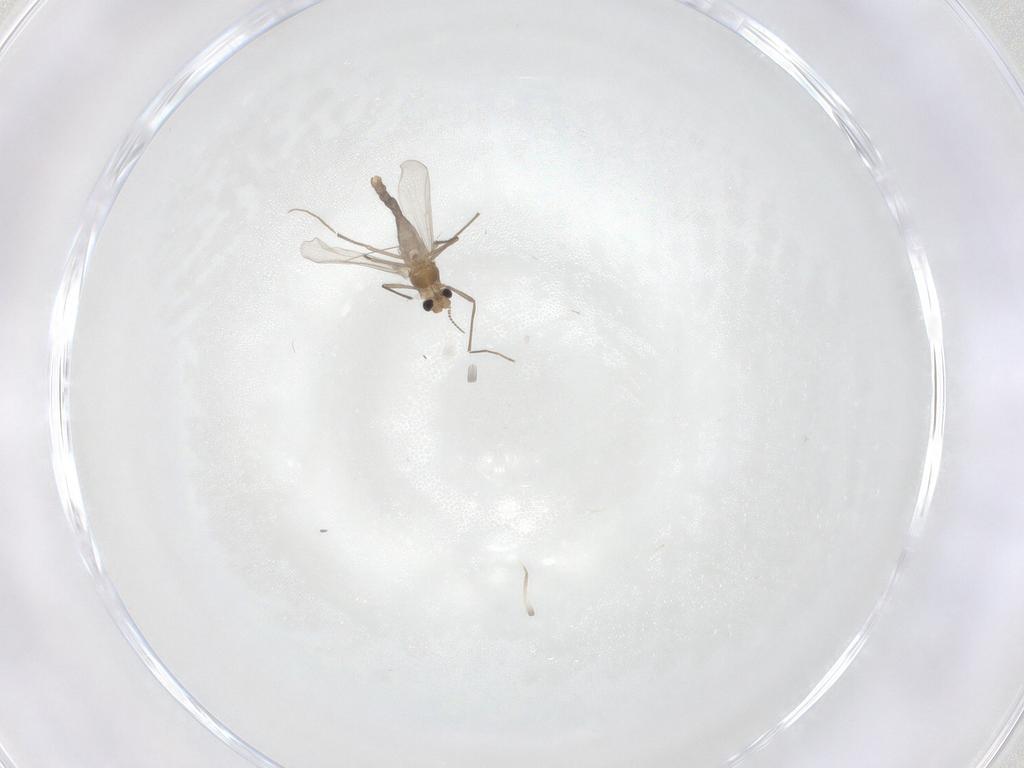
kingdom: Animalia
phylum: Arthropoda
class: Insecta
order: Diptera
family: Chironomidae
